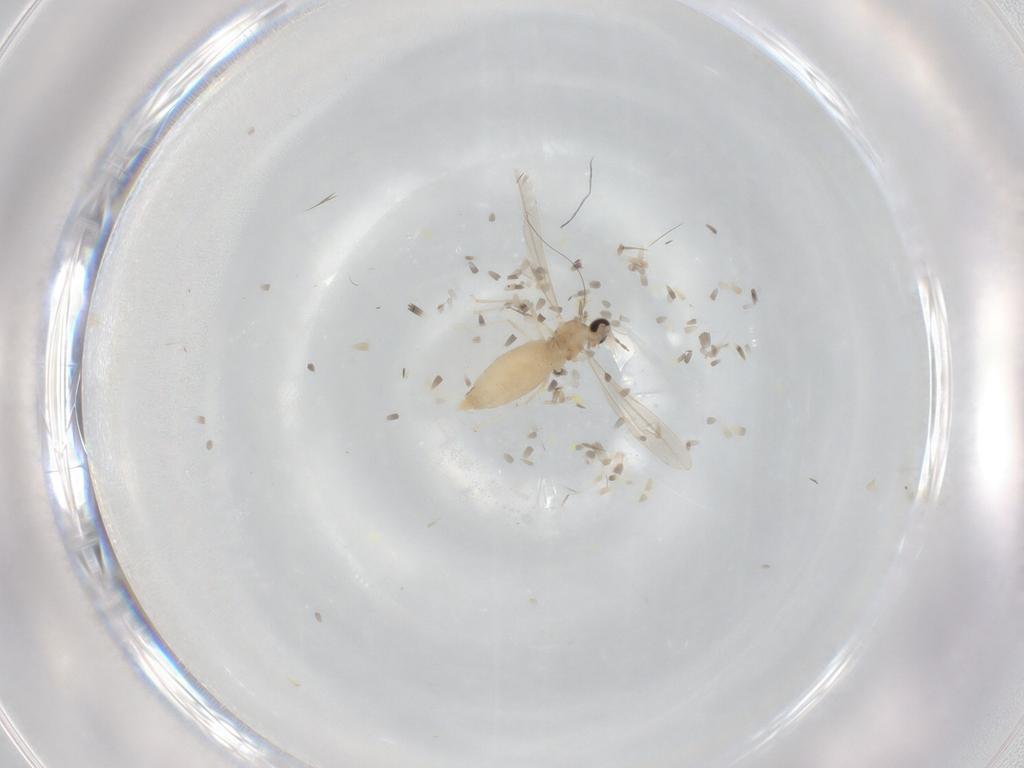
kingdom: Animalia
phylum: Arthropoda
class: Insecta
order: Diptera
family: Cecidomyiidae
